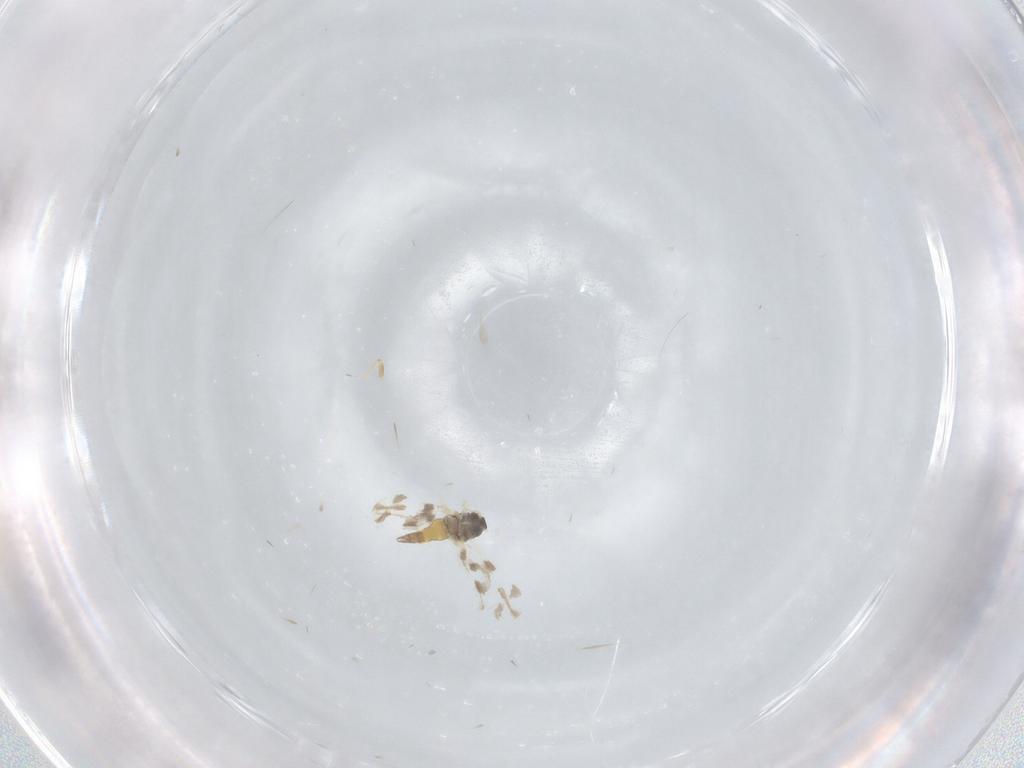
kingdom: Animalia
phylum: Arthropoda
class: Insecta
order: Hemiptera
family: Aleyrodidae
